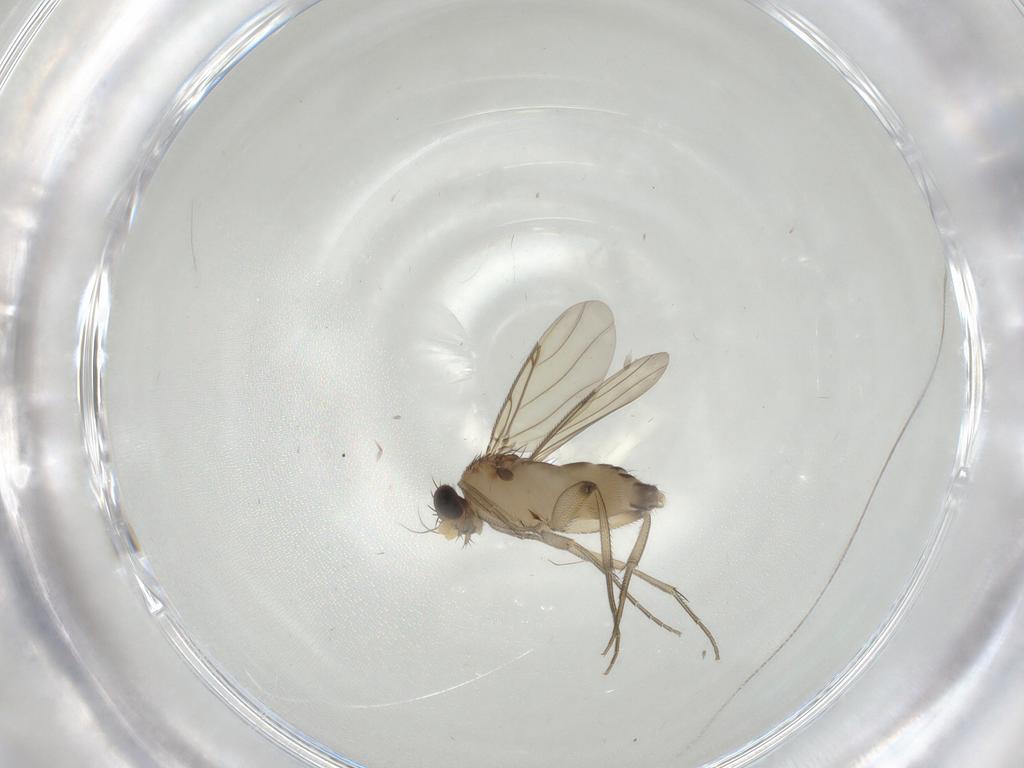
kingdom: Animalia
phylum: Arthropoda
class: Insecta
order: Diptera
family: Phoridae
